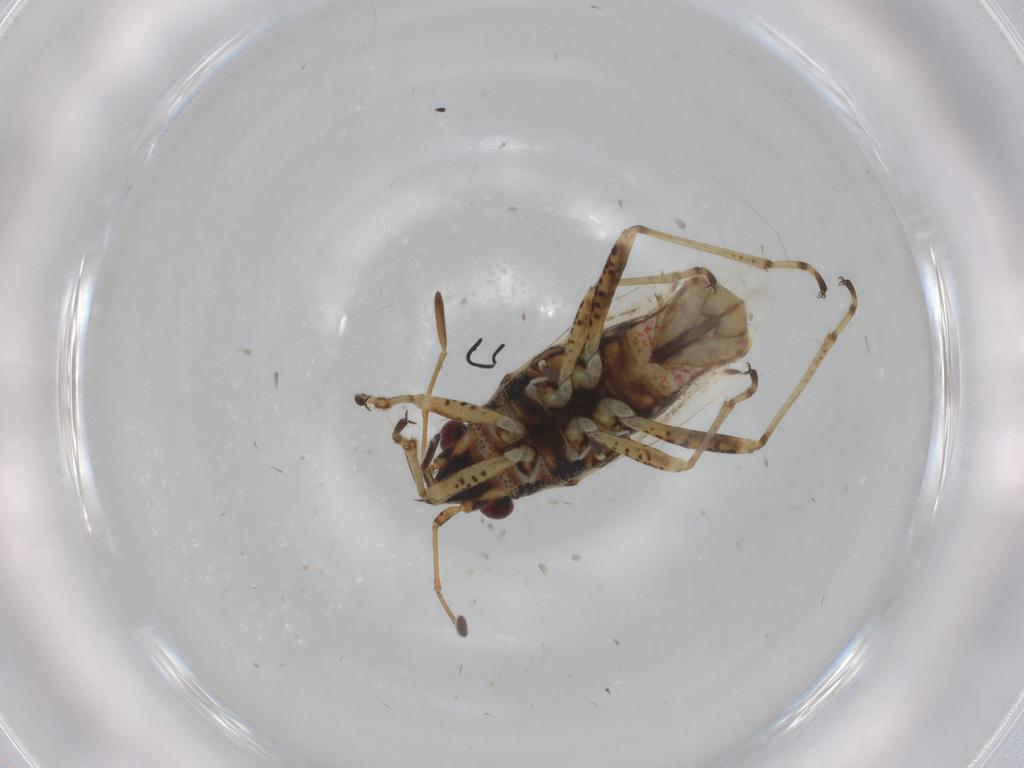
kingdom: Animalia
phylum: Arthropoda
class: Insecta
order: Hemiptera
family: Lygaeidae
